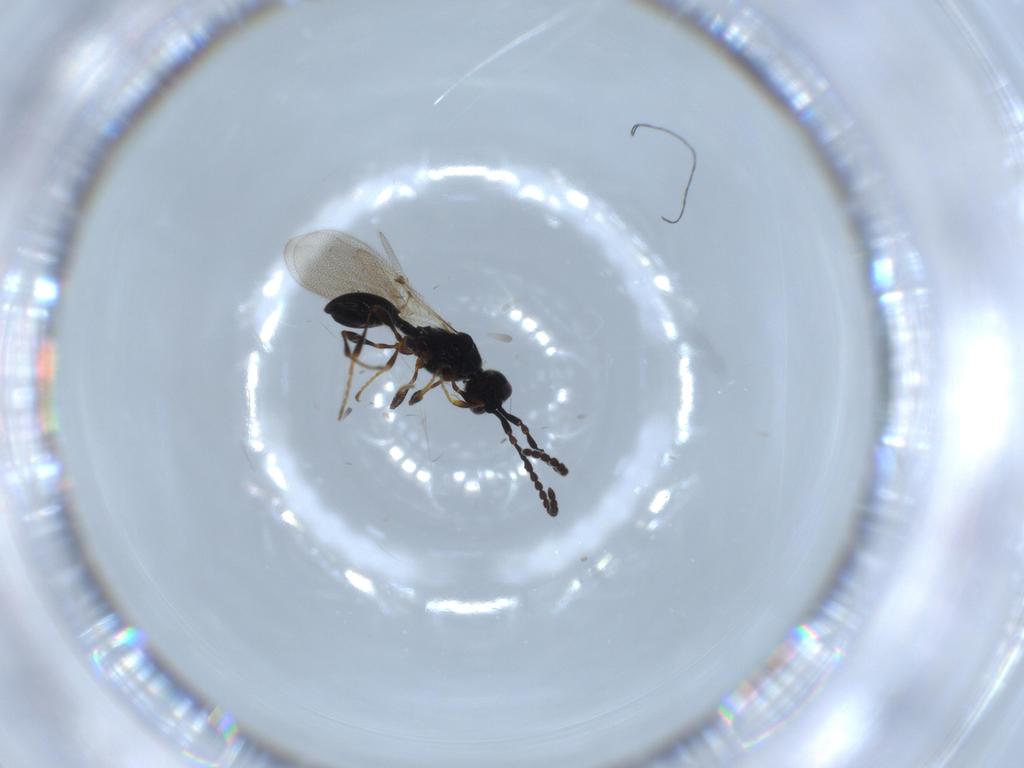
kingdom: Animalia
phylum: Arthropoda
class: Insecta
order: Hymenoptera
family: Diapriidae
